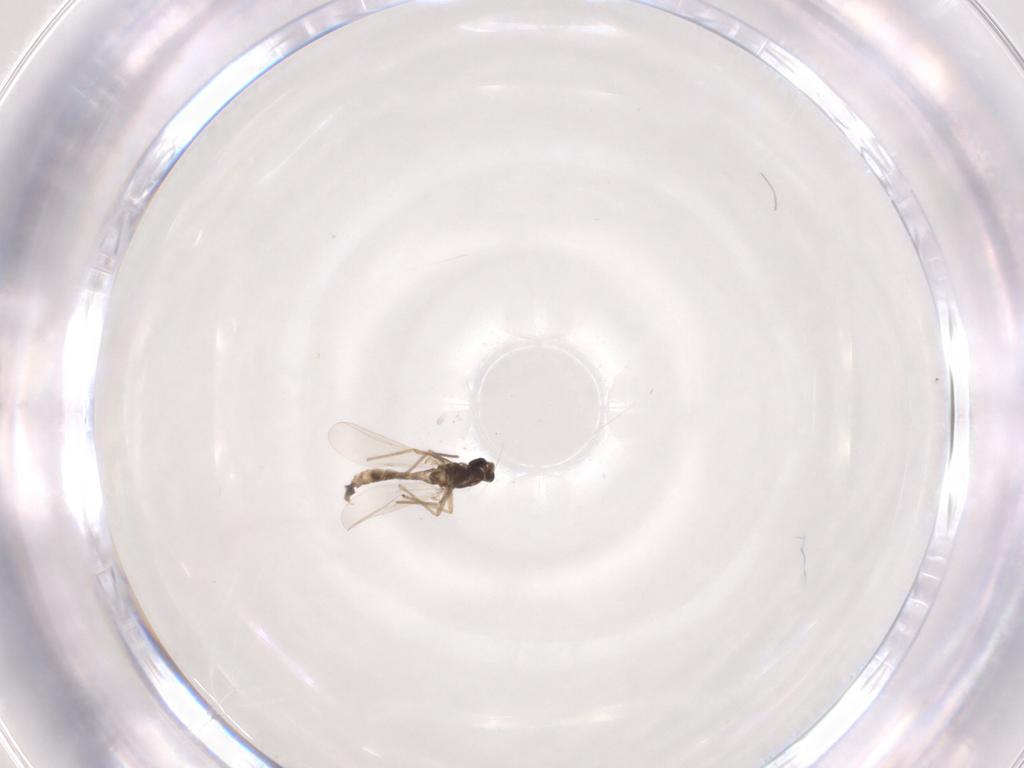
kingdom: Animalia
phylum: Arthropoda
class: Insecta
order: Diptera
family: Chironomidae
